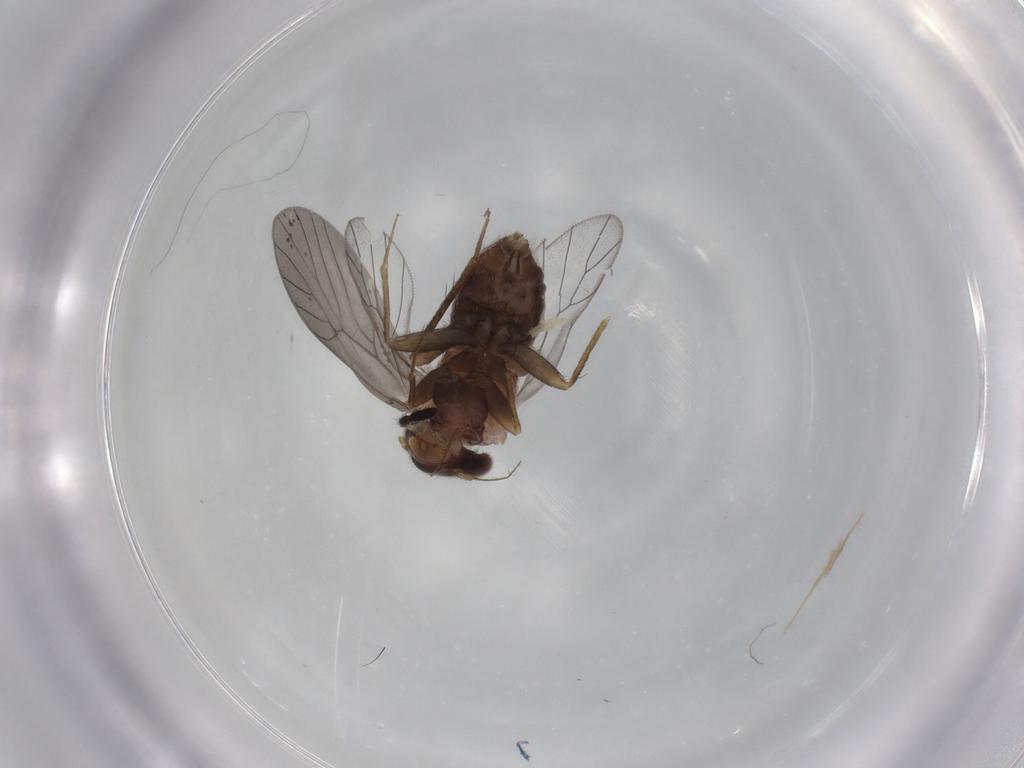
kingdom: Animalia
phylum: Arthropoda
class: Insecta
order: Psocodea
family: Lepidopsocidae
